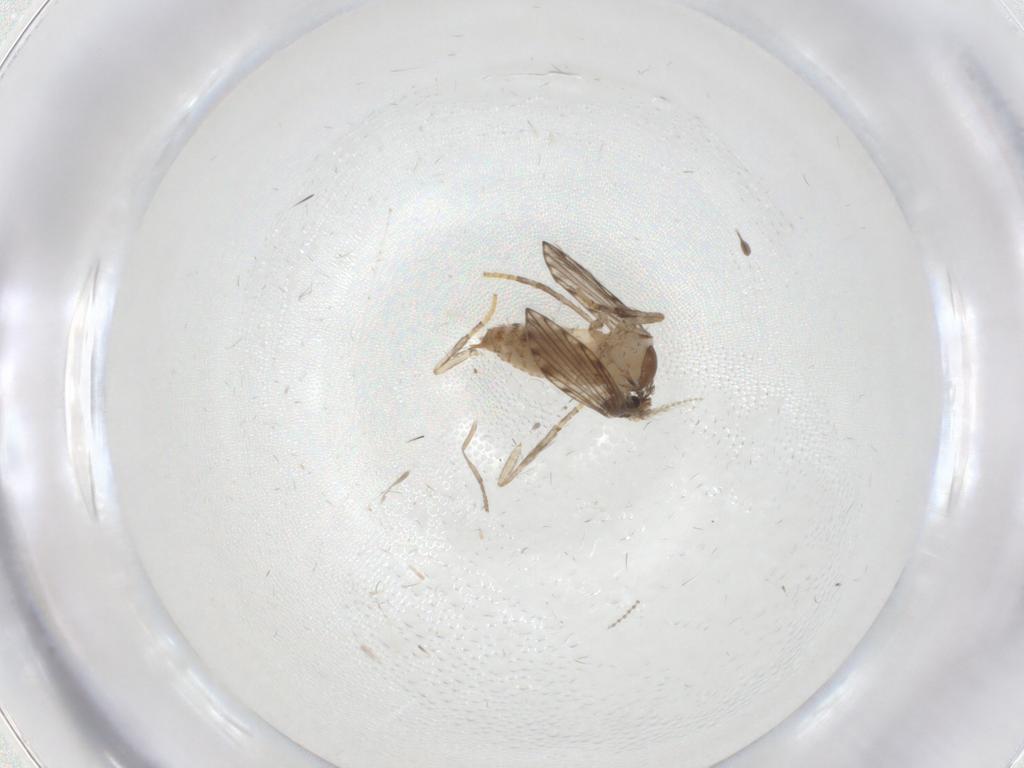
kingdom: Animalia
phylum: Arthropoda
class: Insecta
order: Diptera
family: Psychodidae
